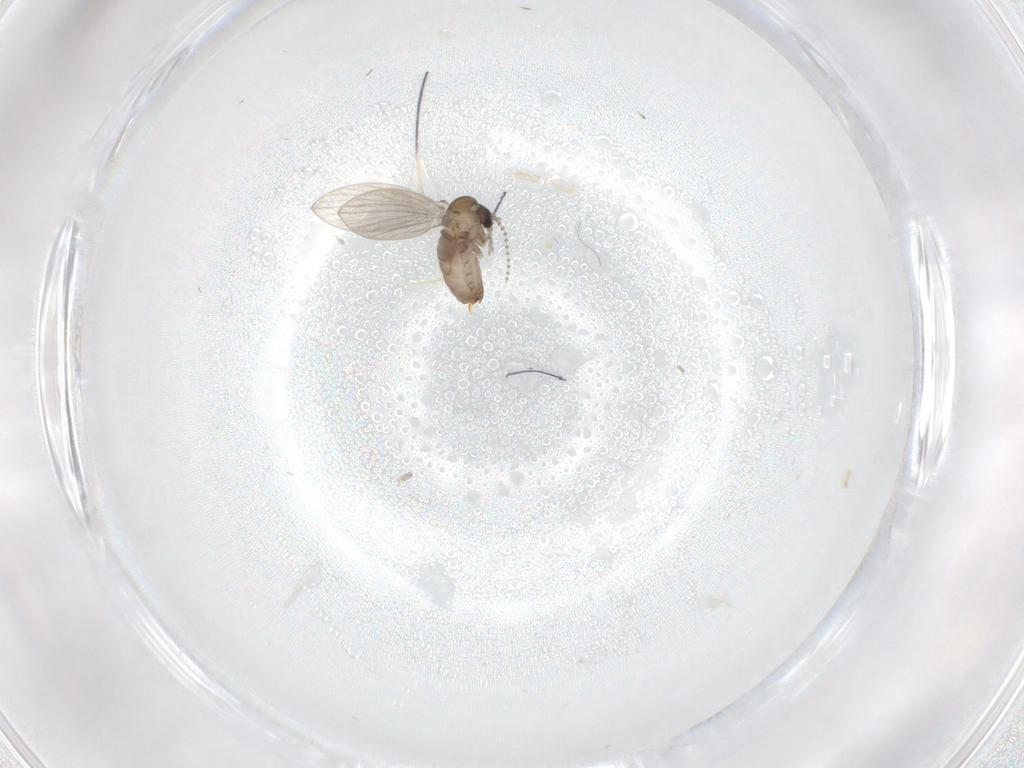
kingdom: Animalia
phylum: Arthropoda
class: Insecta
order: Diptera
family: Psychodidae
